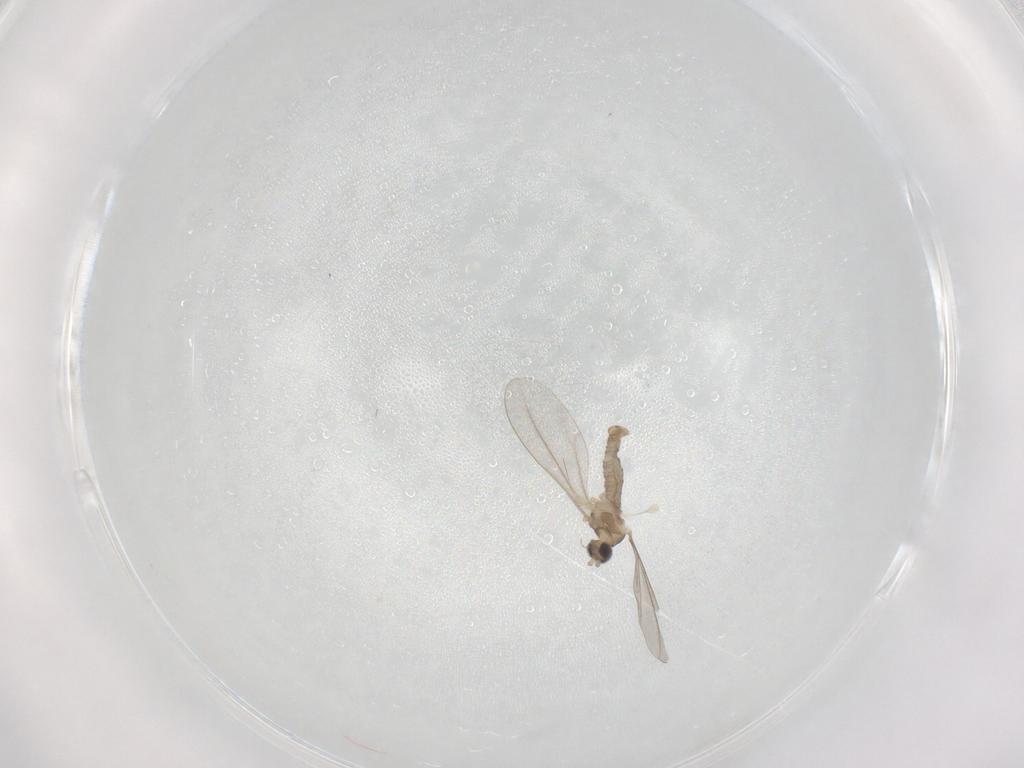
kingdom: Animalia
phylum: Arthropoda
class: Insecta
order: Diptera
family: Cecidomyiidae
